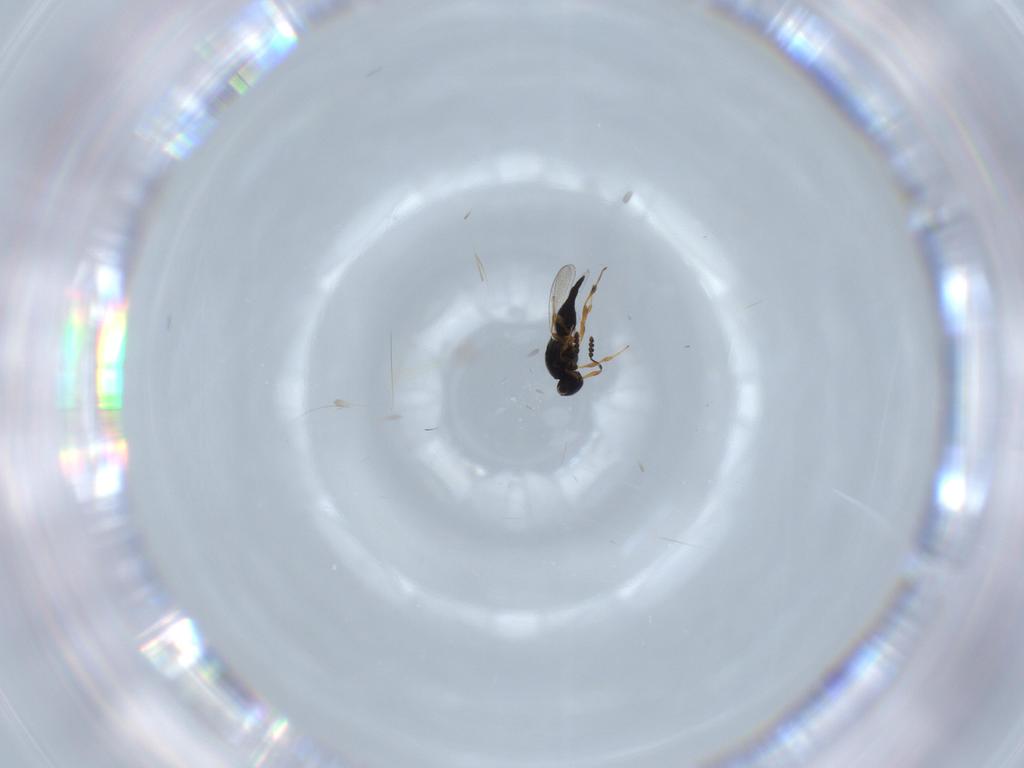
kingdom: Animalia
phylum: Arthropoda
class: Insecta
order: Hymenoptera
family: Platygastridae
